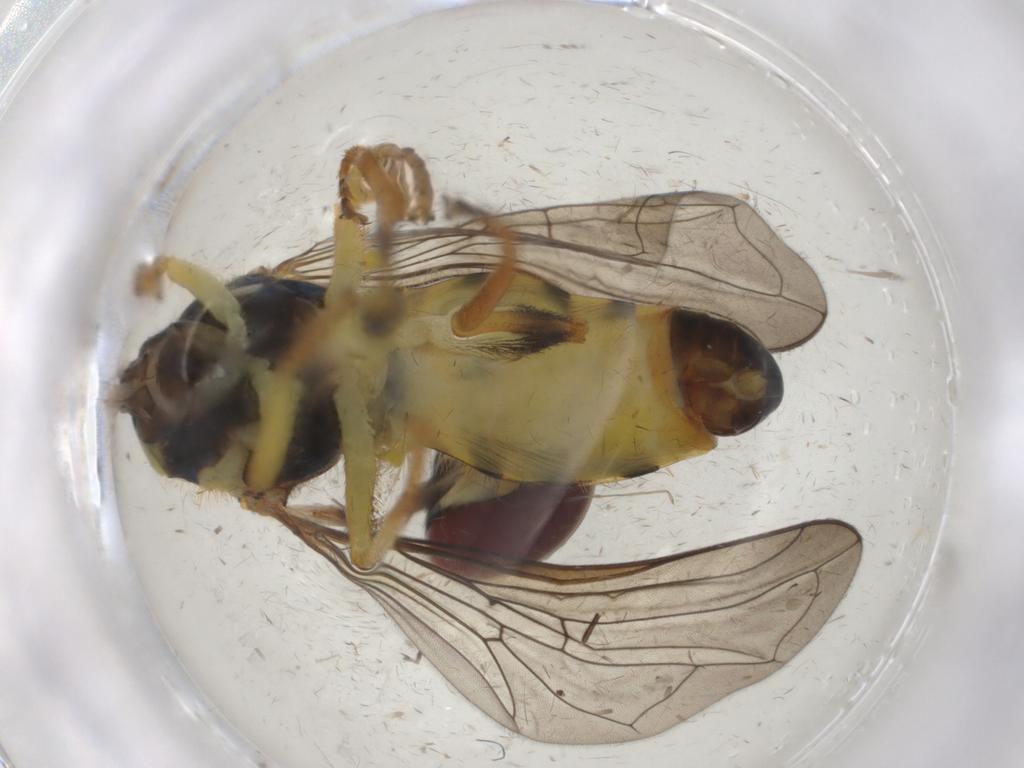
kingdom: Animalia
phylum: Arthropoda
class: Insecta
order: Diptera
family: Syrphidae
